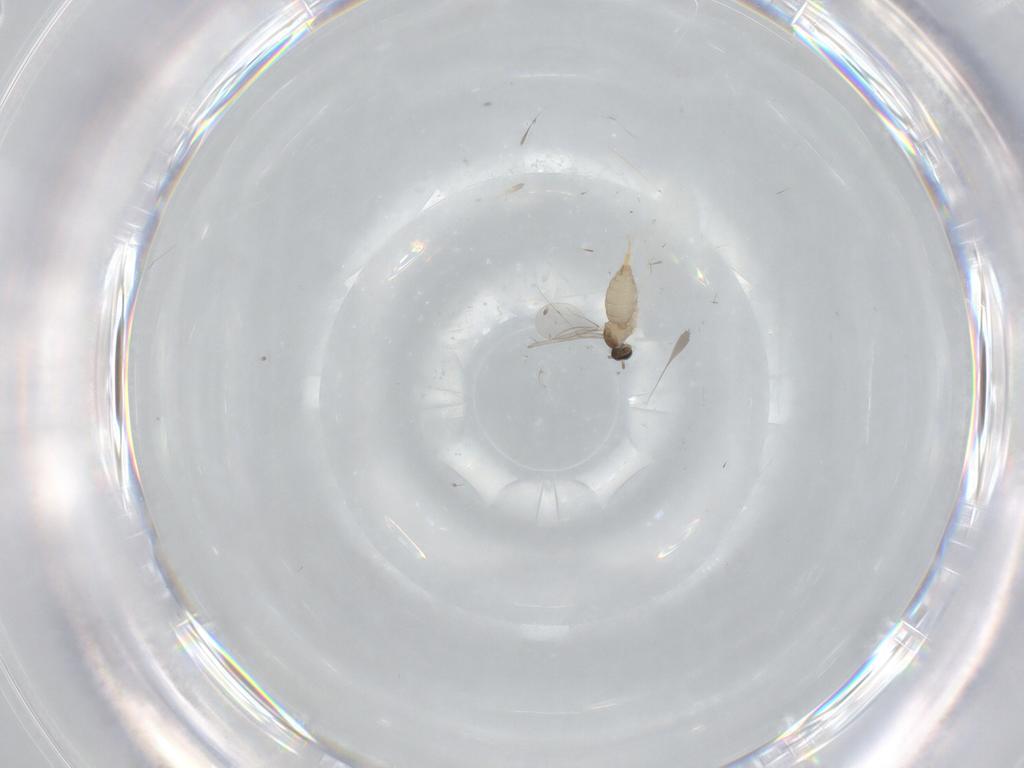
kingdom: Animalia
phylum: Arthropoda
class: Insecta
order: Diptera
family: Cecidomyiidae
